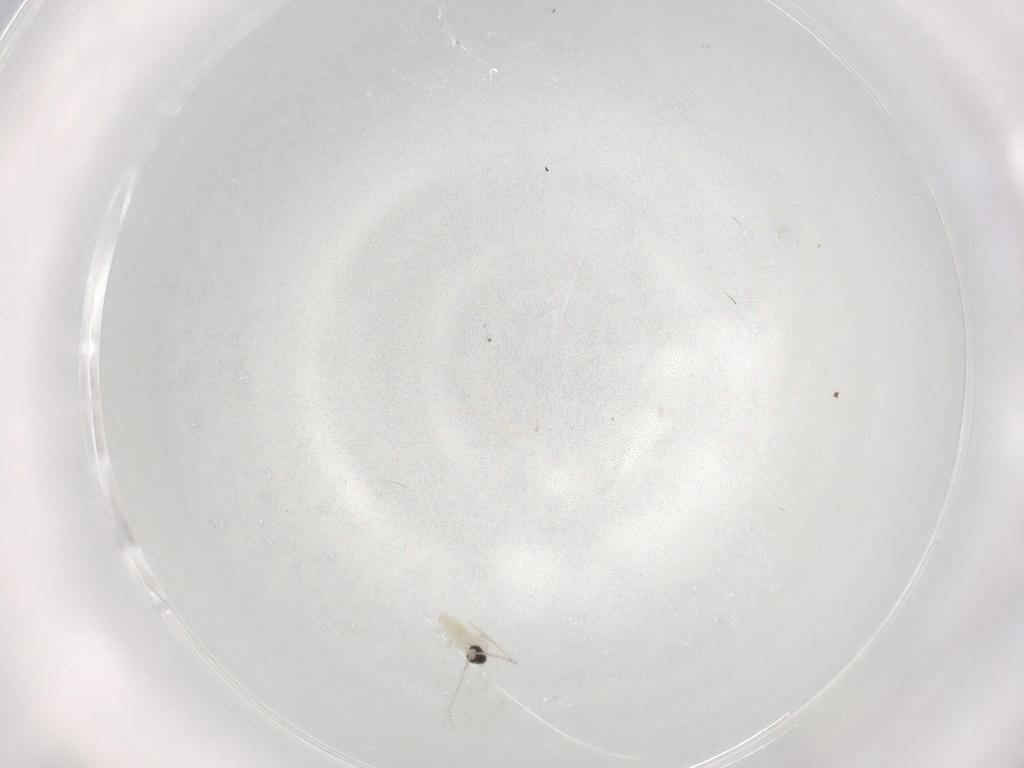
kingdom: Animalia
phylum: Arthropoda
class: Insecta
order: Diptera
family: Cecidomyiidae
